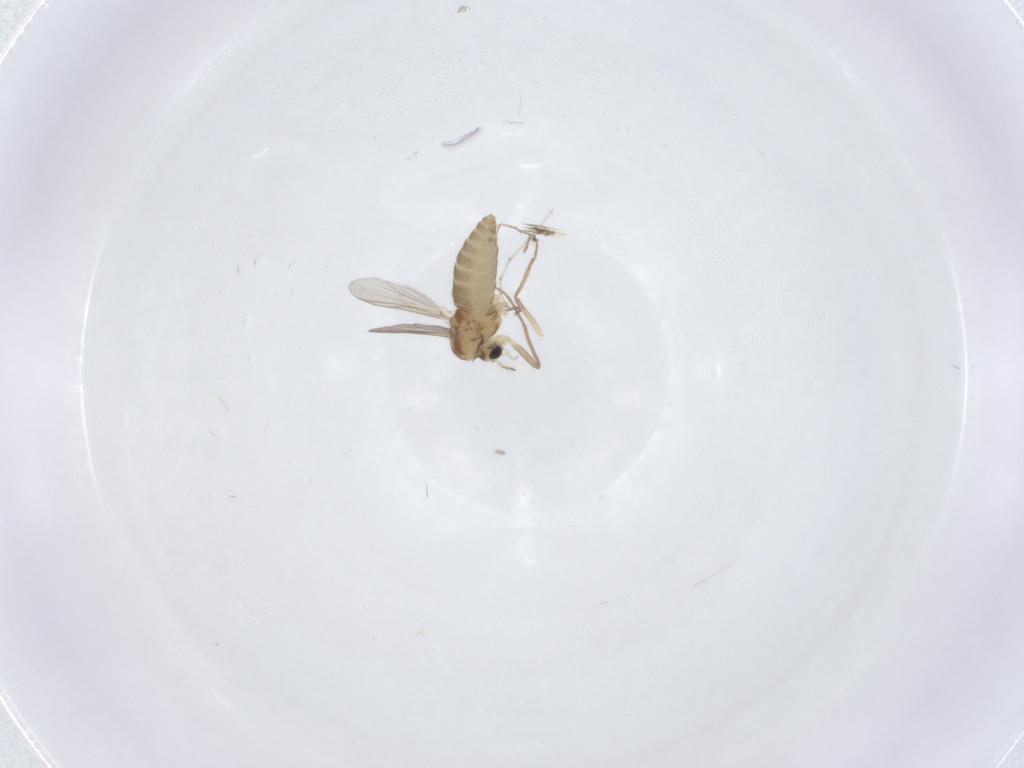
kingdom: Animalia
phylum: Arthropoda
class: Insecta
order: Diptera
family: Chironomidae
